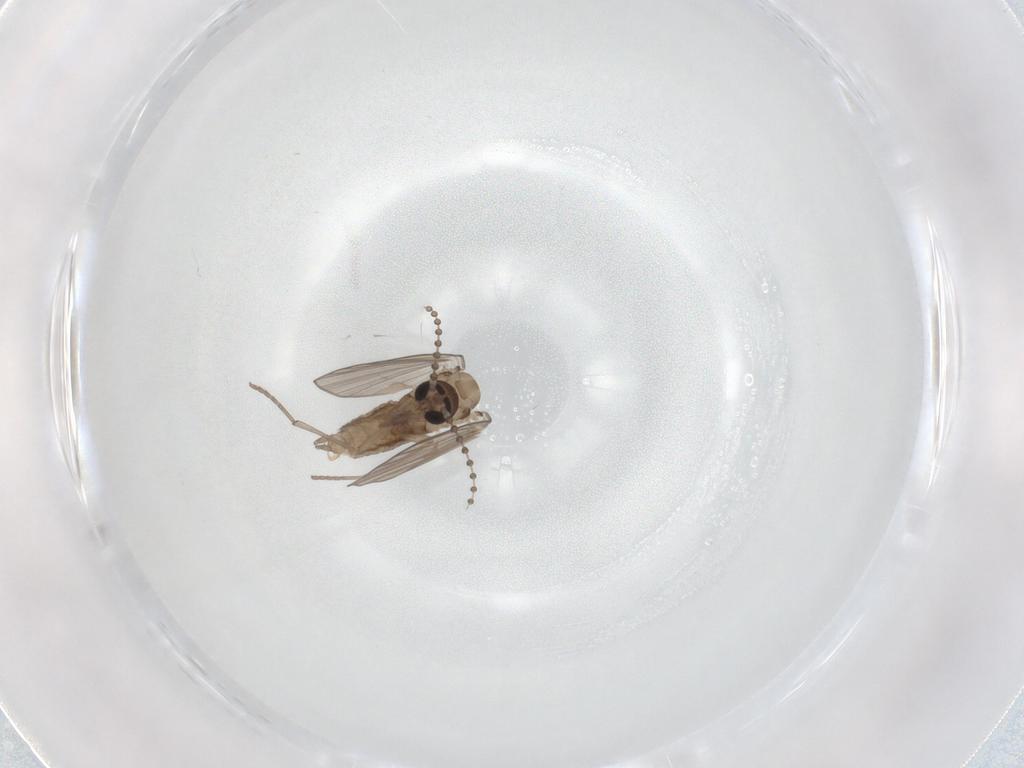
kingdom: Animalia
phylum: Arthropoda
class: Insecta
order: Diptera
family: Psychodidae
